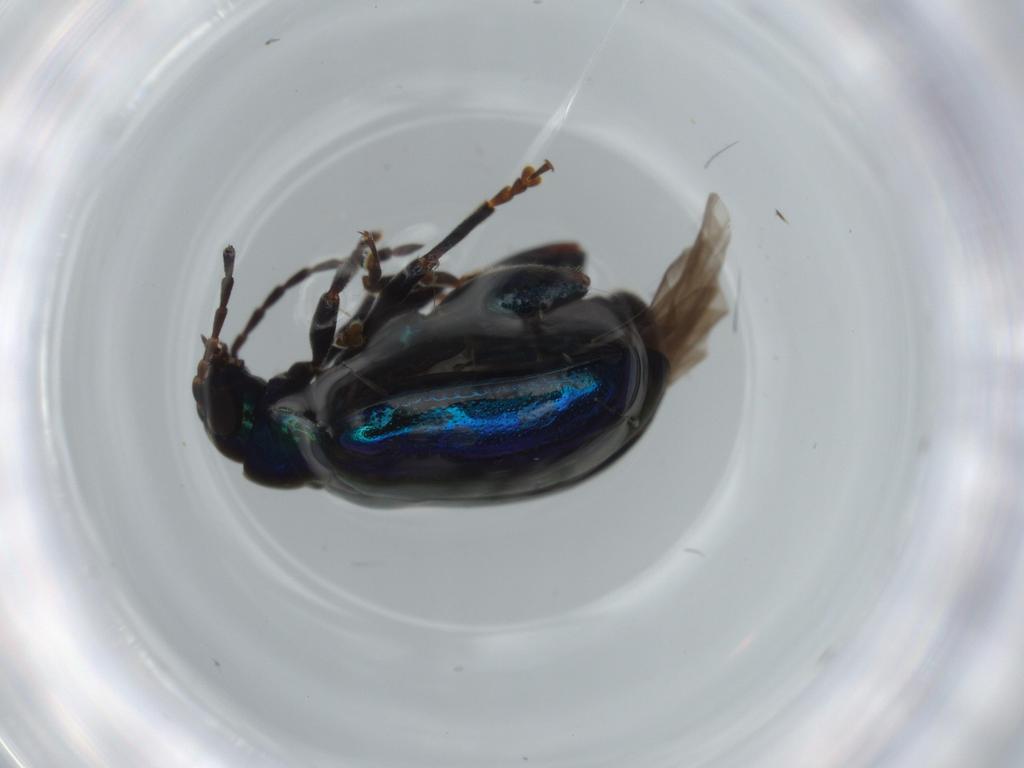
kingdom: Animalia
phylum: Arthropoda
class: Insecta
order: Coleoptera
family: Chrysomelidae
